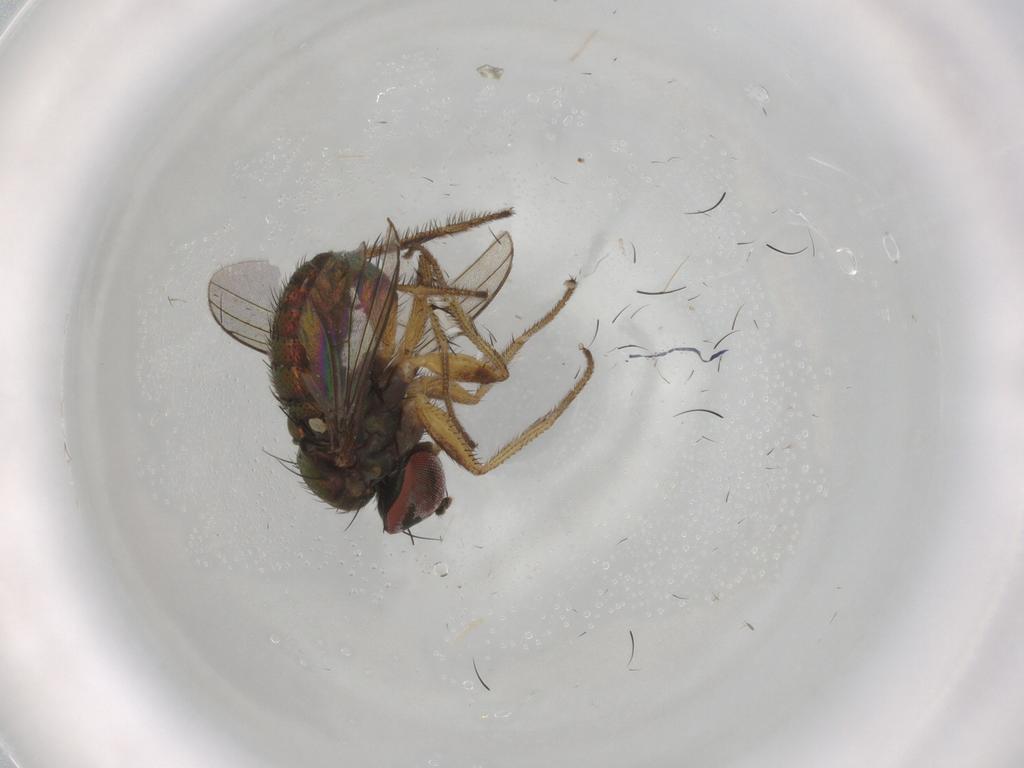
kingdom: Animalia
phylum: Arthropoda
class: Insecta
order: Diptera
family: Dolichopodidae
